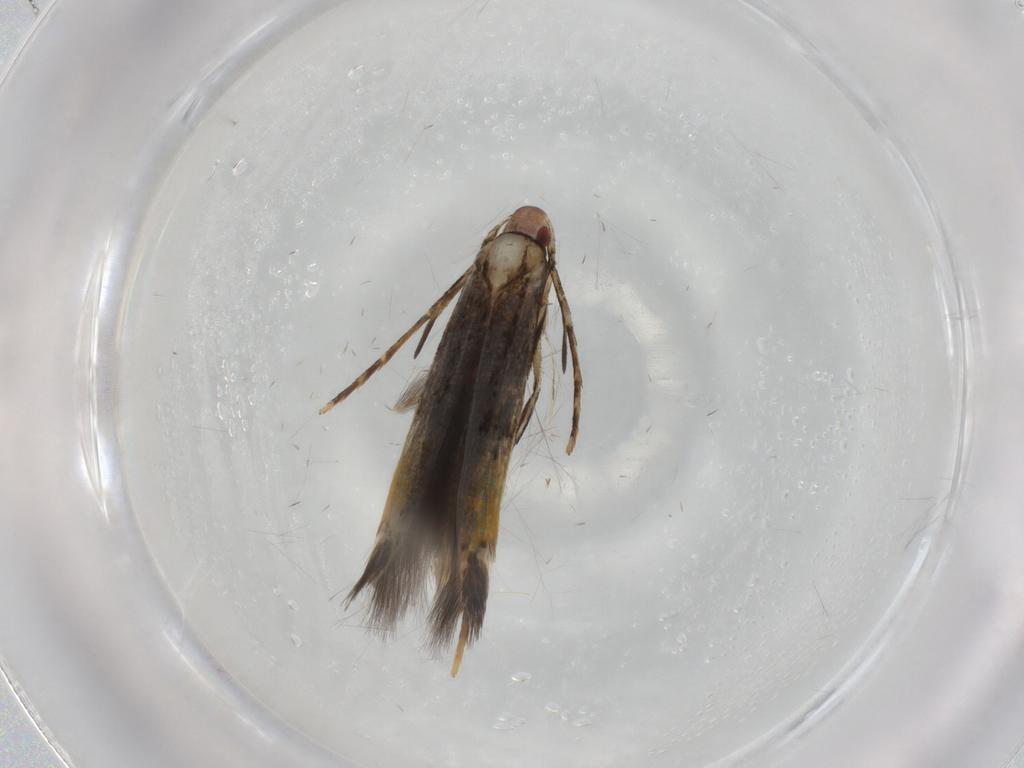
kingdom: Animalia
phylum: Arthropoda
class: Insecta
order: Lepidoptera
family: Cosmopterigidae
